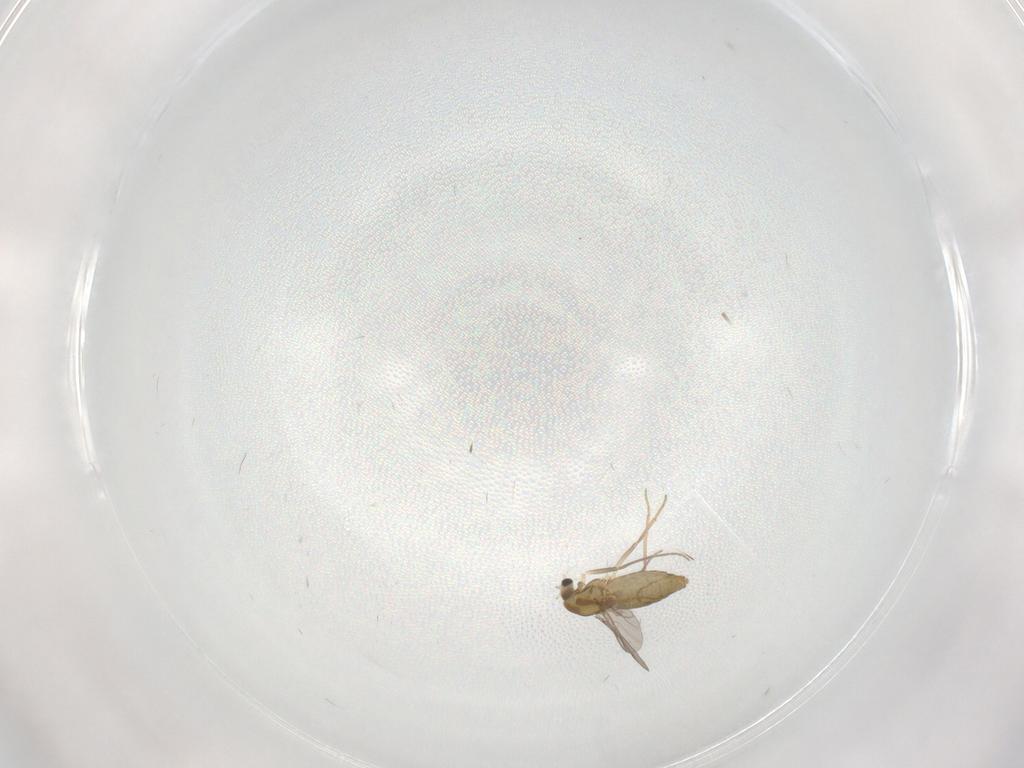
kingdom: Animalia
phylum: Arthropoda
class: Insecta
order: Diptera
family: Chironomidae
